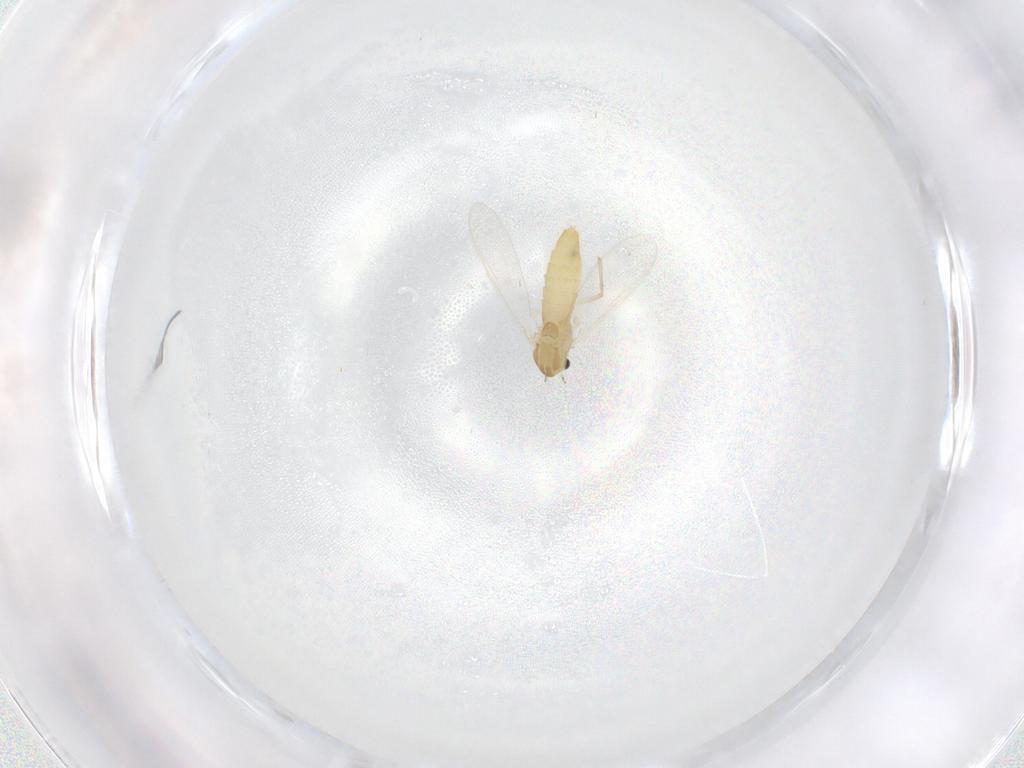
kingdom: Animalia
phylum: Arthropoda
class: Insecta
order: Diptera
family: Chironomidae
